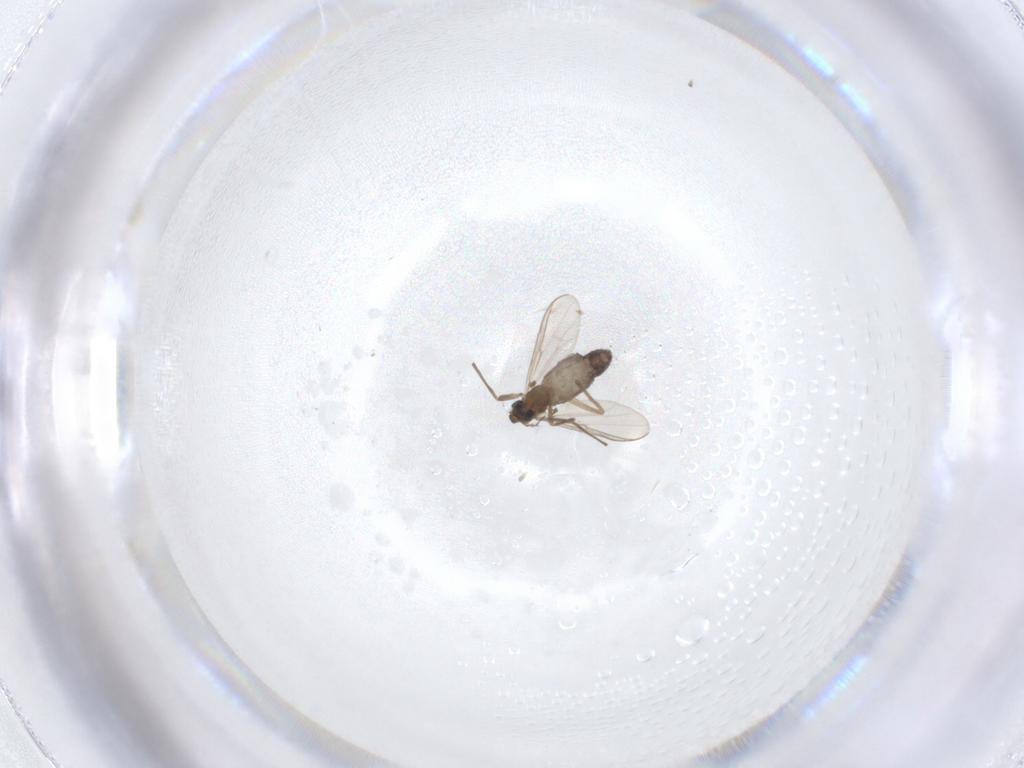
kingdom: Animalia
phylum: Arthropoda
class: Insecta
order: Diptera
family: Chironomidae
